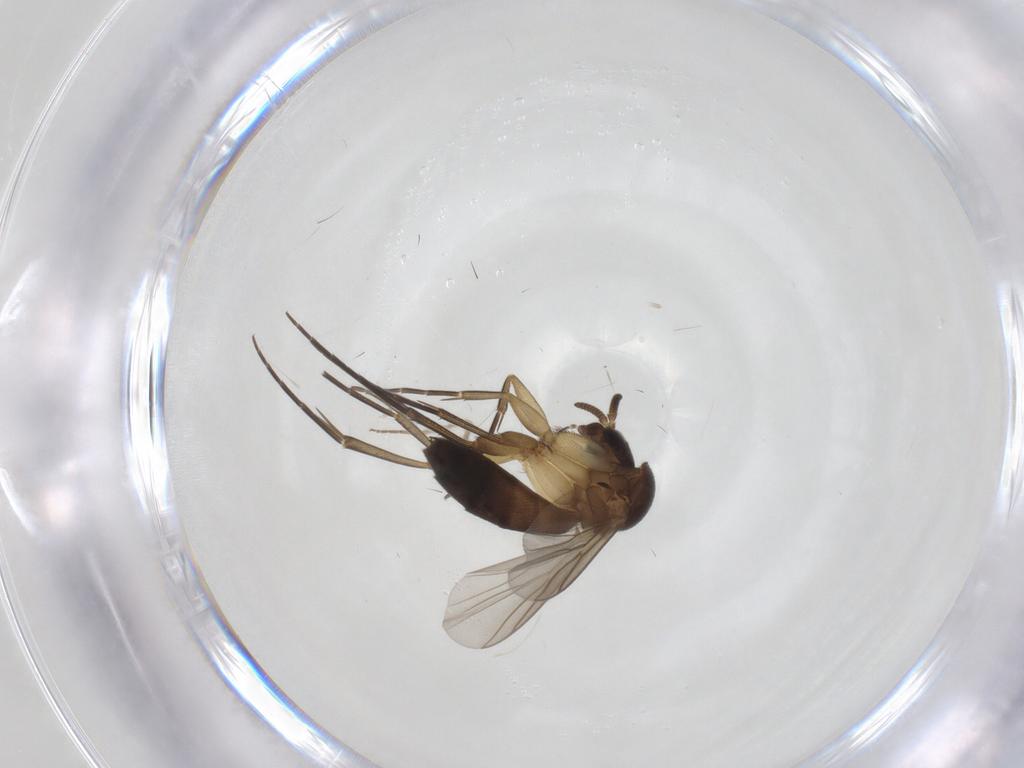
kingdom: Animalia
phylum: Arthropoda
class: Insecta
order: Diptera
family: Mycetophilidae
